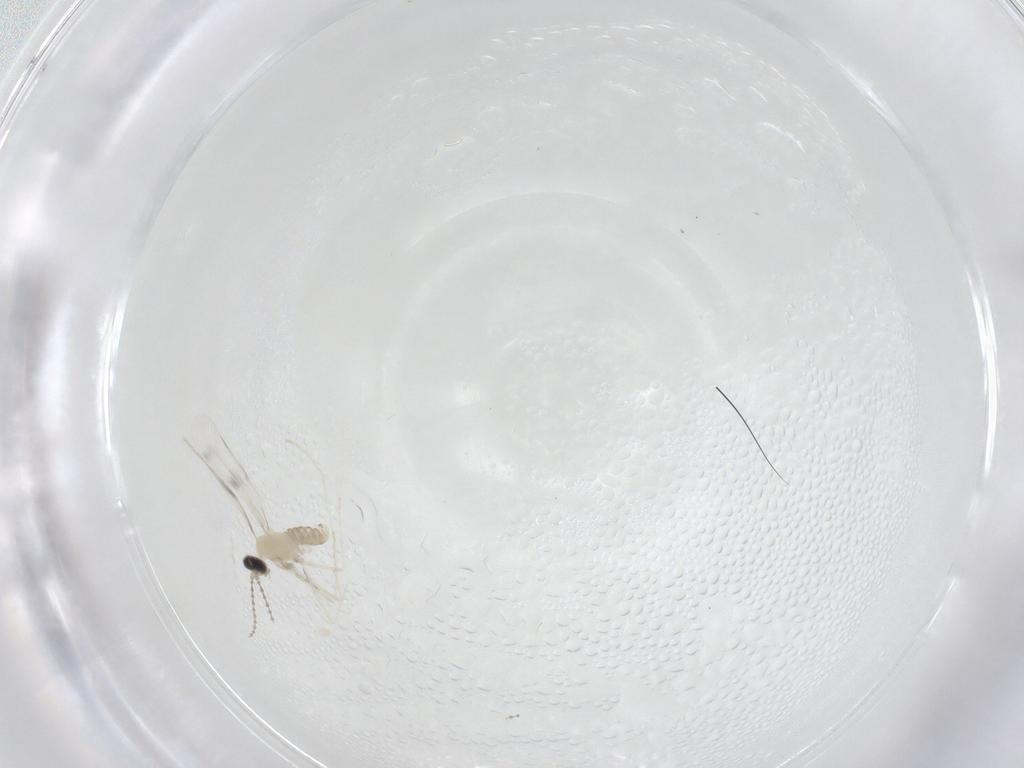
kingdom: Animalia
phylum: Arthropoda
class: Insecta
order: Diptera
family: Cecidomyiidae
